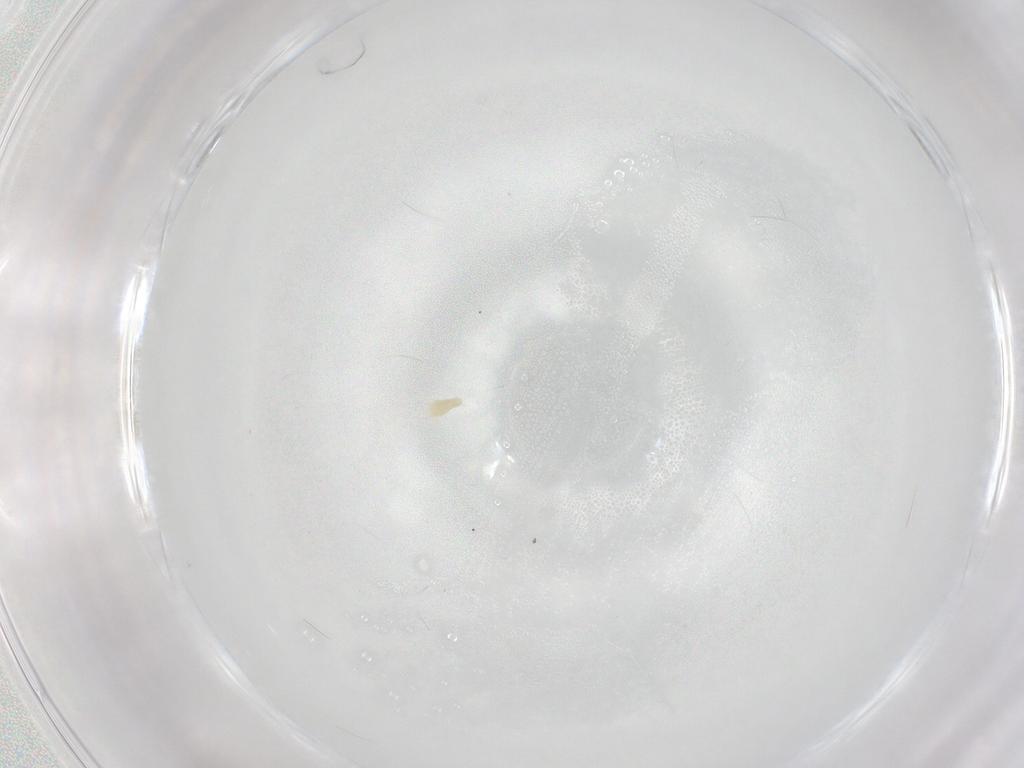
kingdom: Animalia
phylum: Arthropoda
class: Arachnida
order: Trombidiformes
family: Eupodidae
